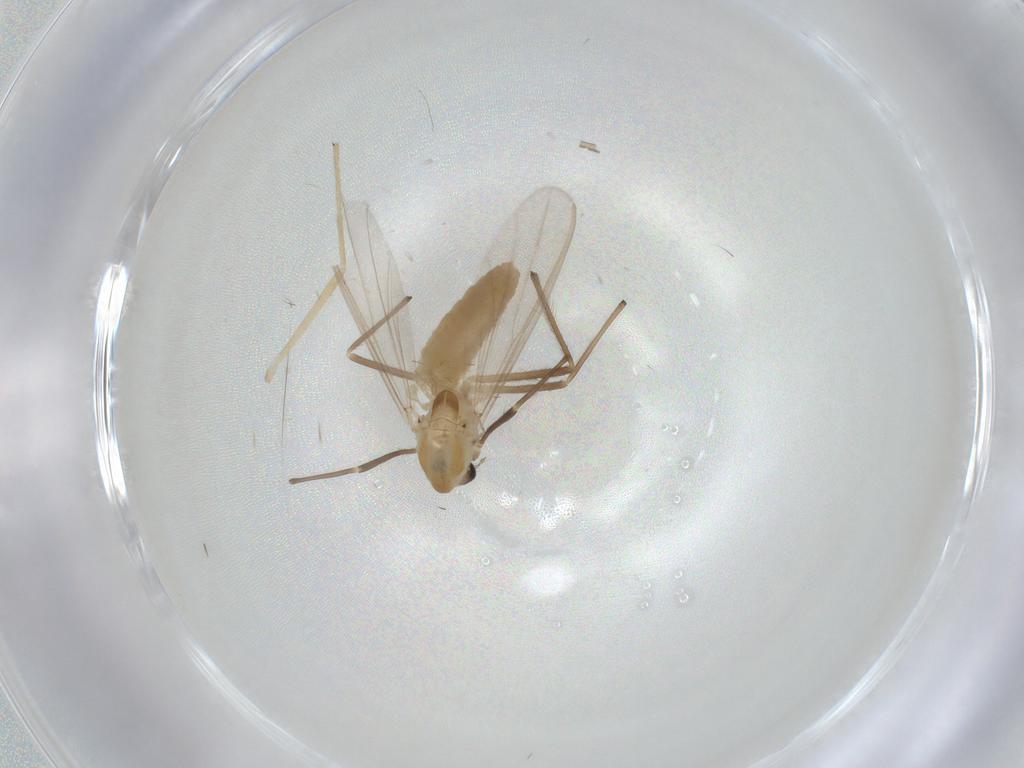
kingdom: Animalia
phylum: Arthropoda
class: Insecta
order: Diptera
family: Chironomidae
